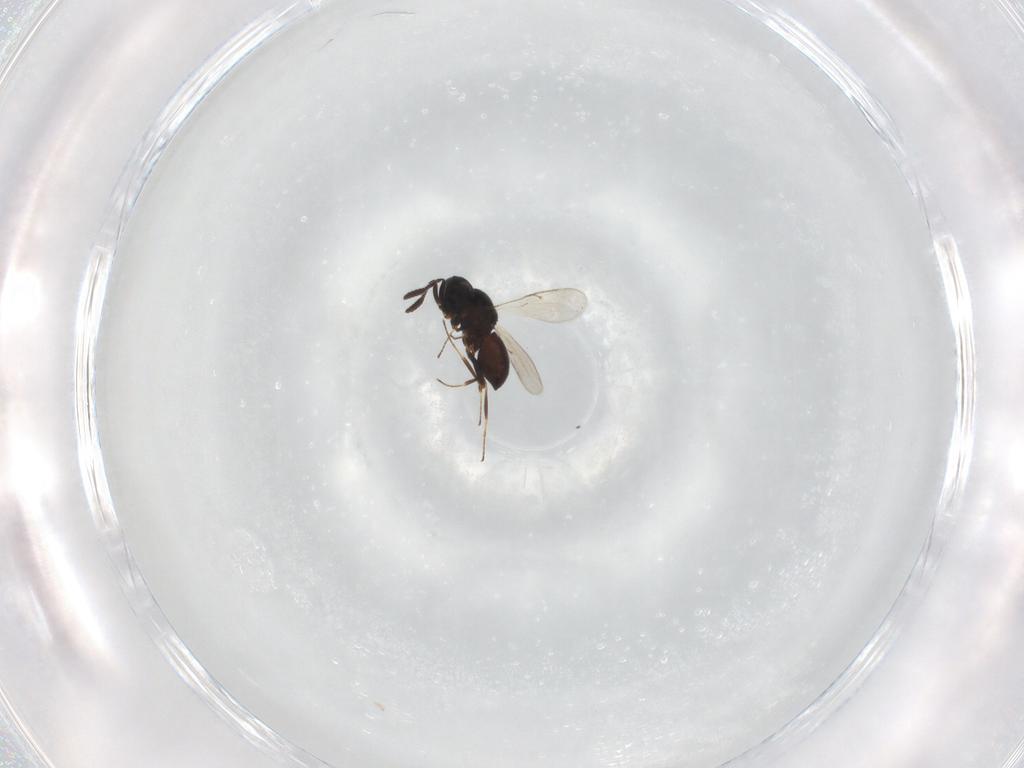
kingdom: Animalia
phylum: Arthropoda
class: Insecta
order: Hymenoptera
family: Scelionidae
